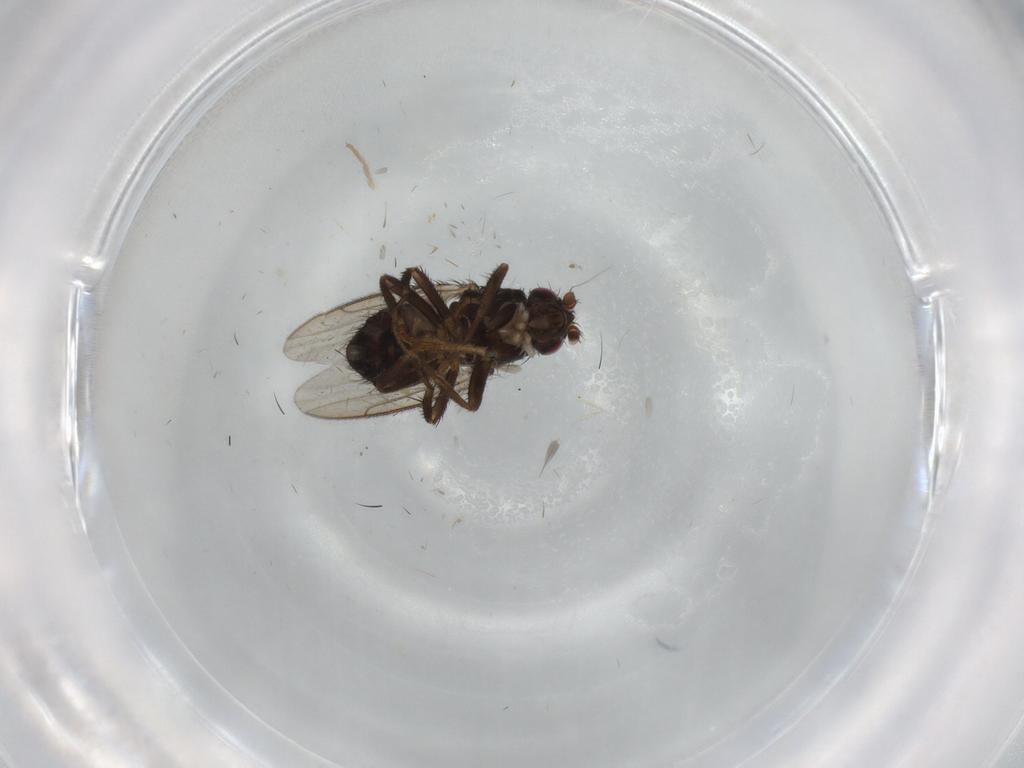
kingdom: Animalia
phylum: Arthropoda
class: Insecta
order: Diptera
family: Sphaeroceridae
